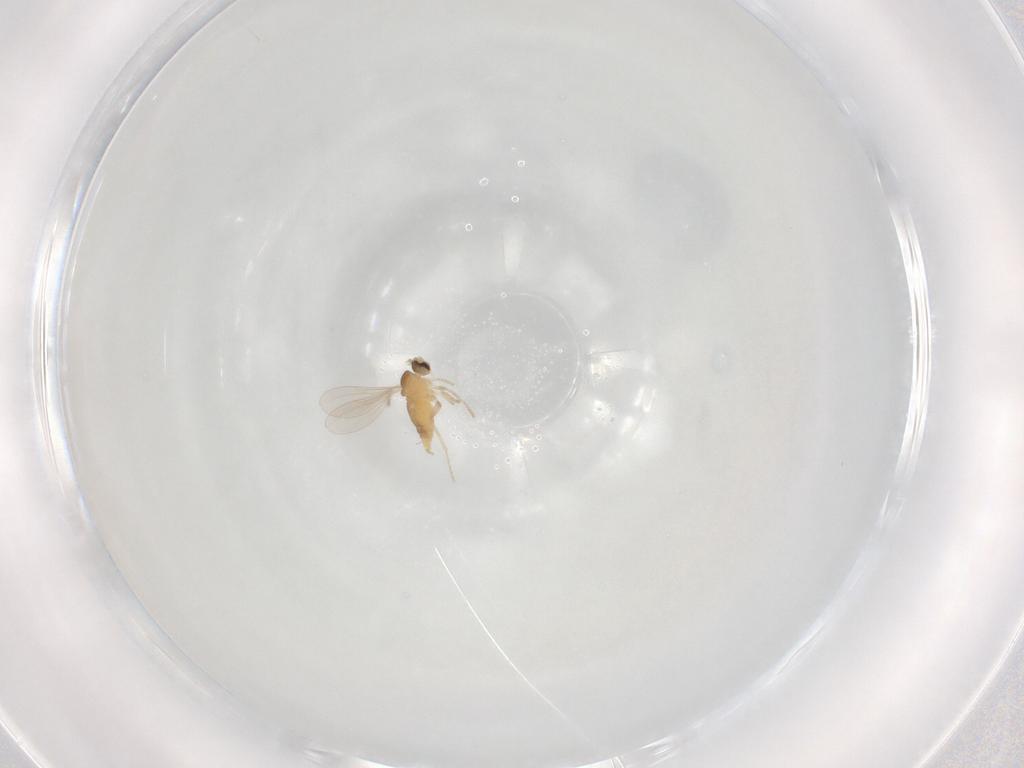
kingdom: Animalia
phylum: Arthropoda
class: Insecta
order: Diptera
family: Cecidomyiidae
